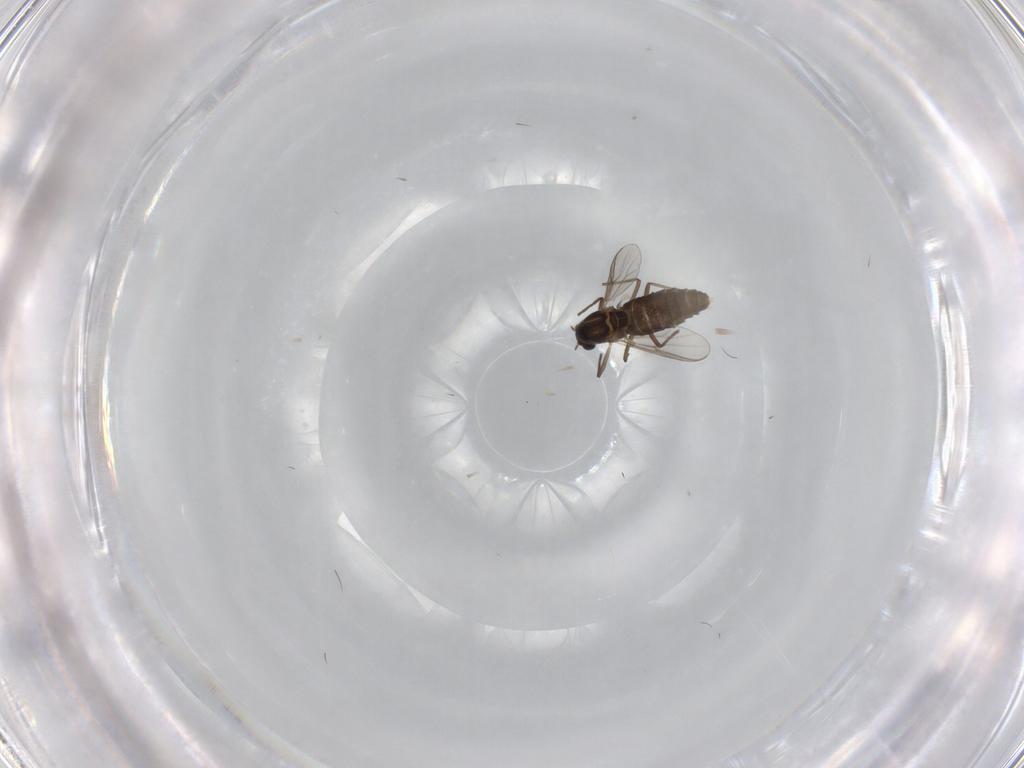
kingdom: Animalia
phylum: Arthropoda
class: Insecta
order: Diptera
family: Chironomidae
